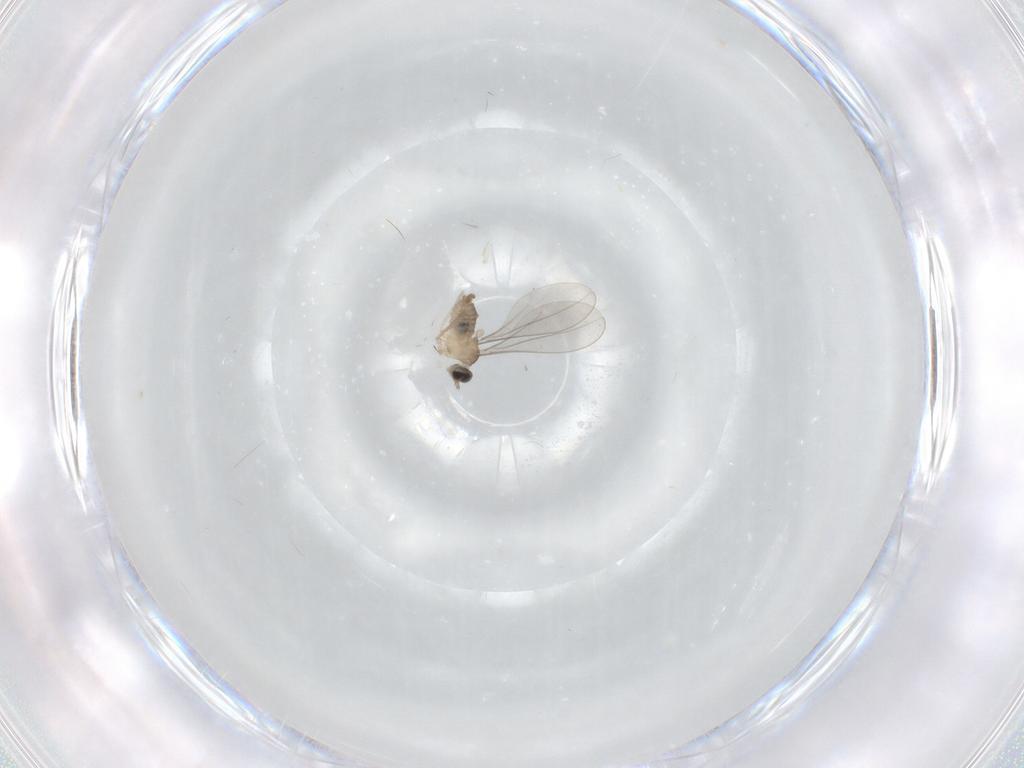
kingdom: Animalia
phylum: Arthropoda
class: Insecta
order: Diptera
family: Cecidomyiidae
